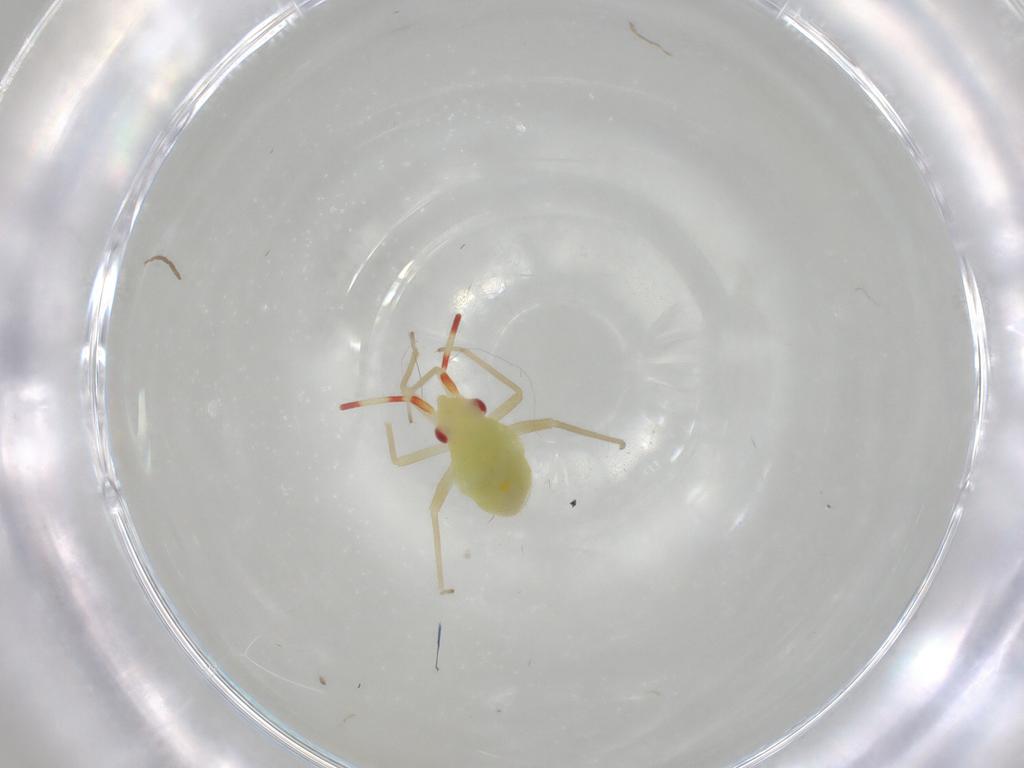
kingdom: Animalia
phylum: Arthropoda
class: Insecta
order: Hemiptera
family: Miridae
